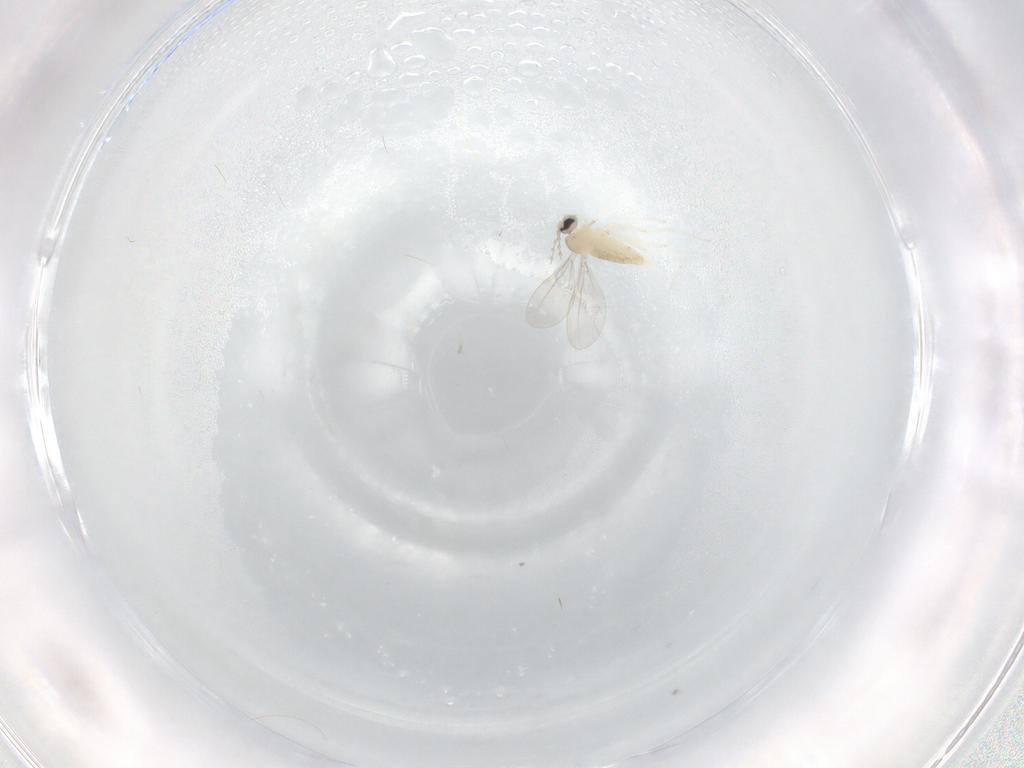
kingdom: Animalia
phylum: Arthropoda
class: Insecta
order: Diptera
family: Cecidomyiidae
